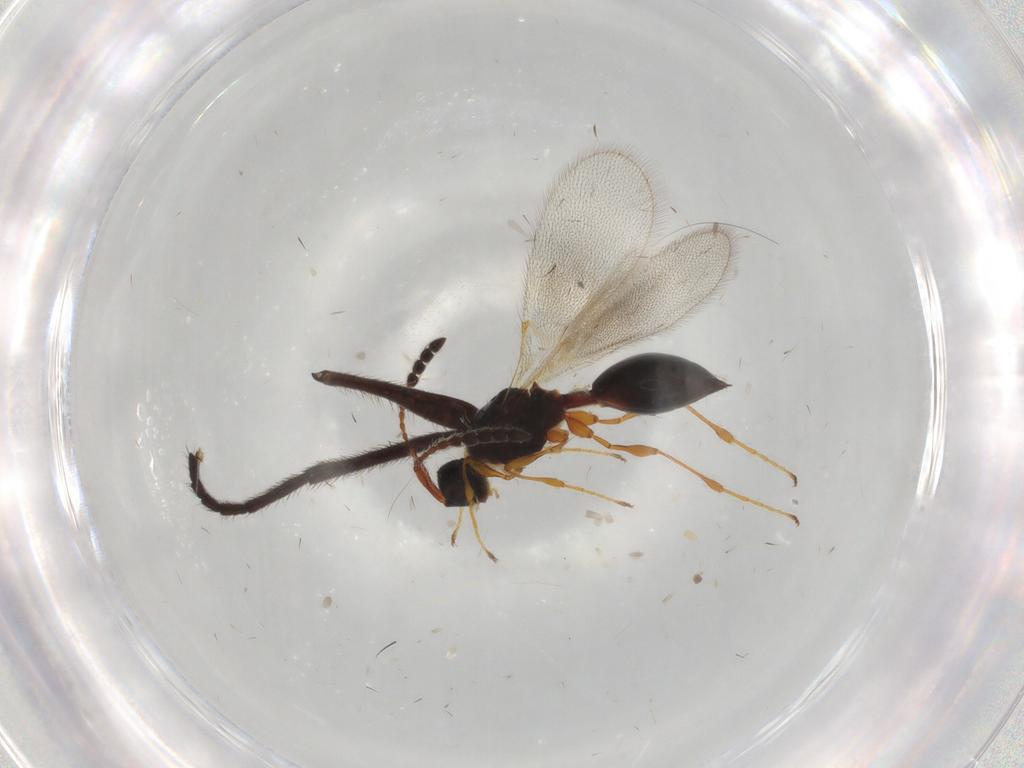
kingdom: Animalia
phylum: Arthropoda
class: Insecta
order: Hymenoptera
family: Diapriidae
